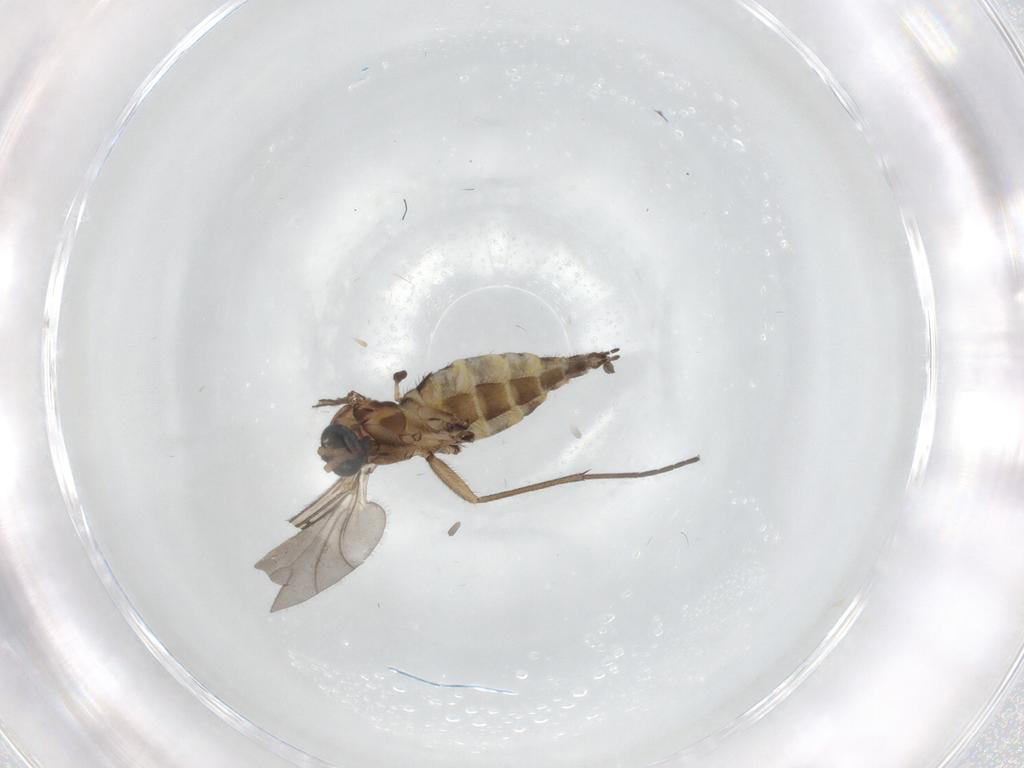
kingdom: Animalia
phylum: Arthropoda
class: Insecta
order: Diptera
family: Sciaridae
